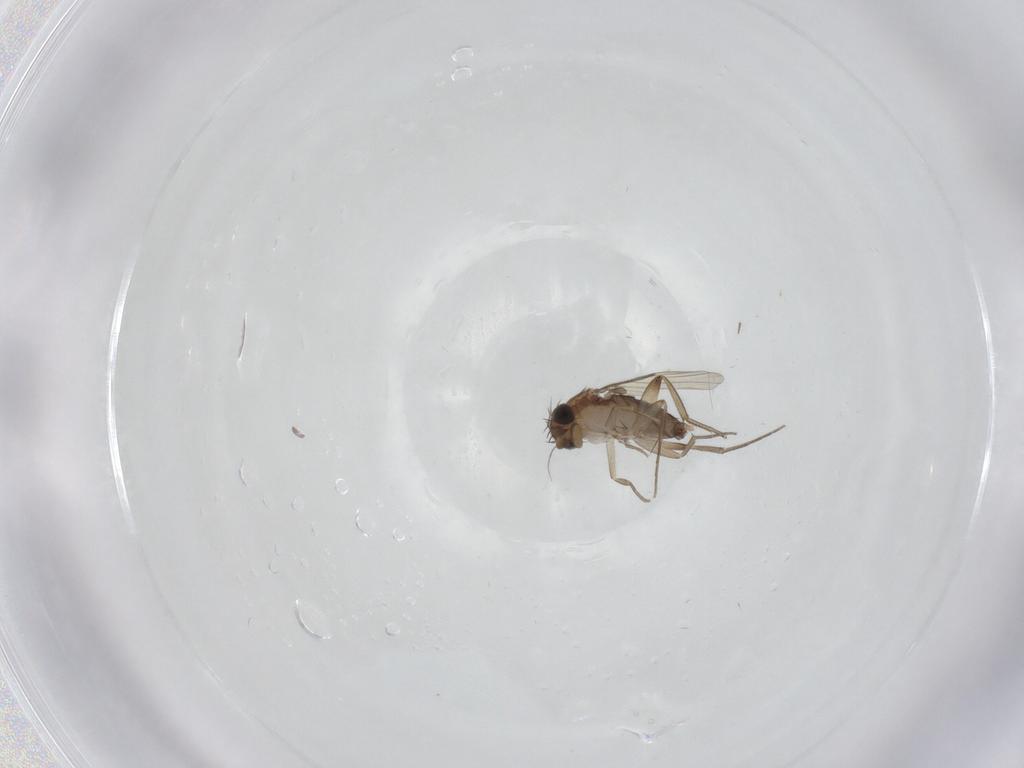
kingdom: Animalia
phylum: Arthropoda
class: Insecta
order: Diptera
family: Phoridae
